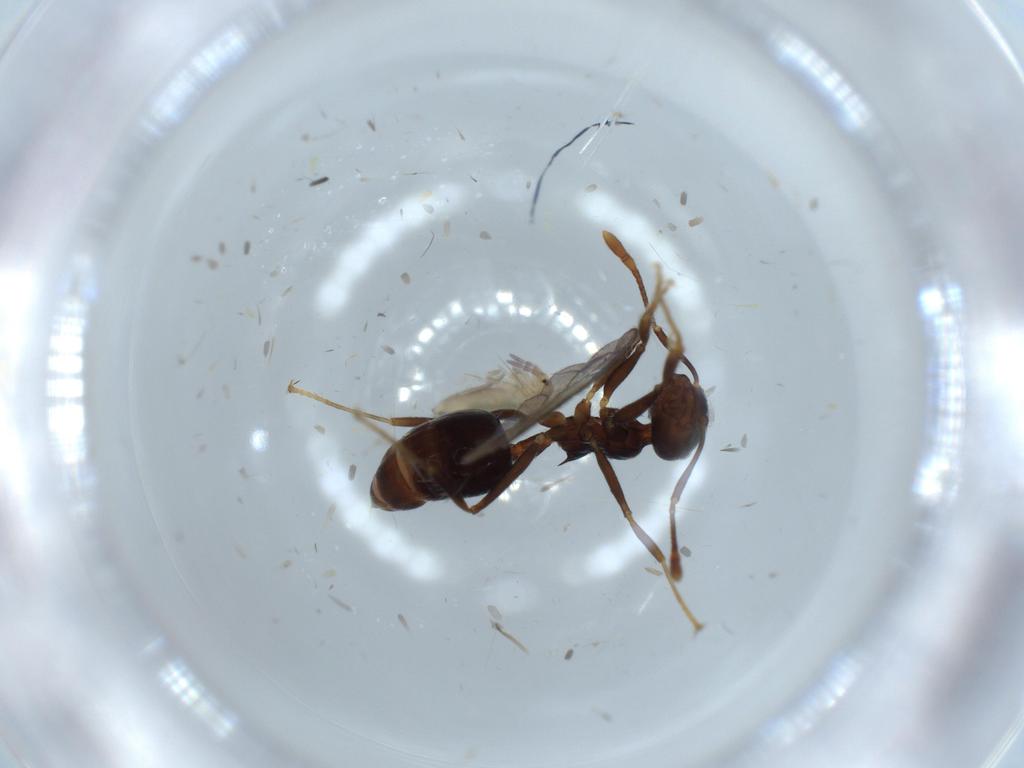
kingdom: Animalia
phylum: Arthropoda
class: Collembola
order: Entomobryomorpha
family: Entomobryidae
